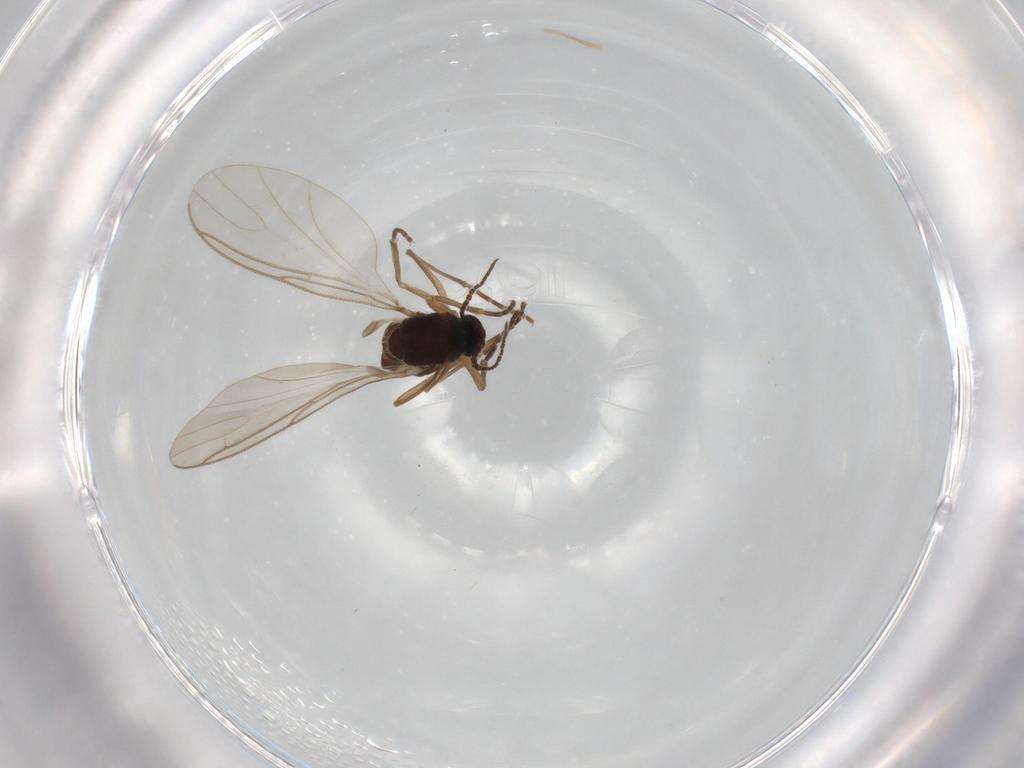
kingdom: Animalia
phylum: Arthropoda
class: Insecta
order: Diptera
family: Sciaridae
